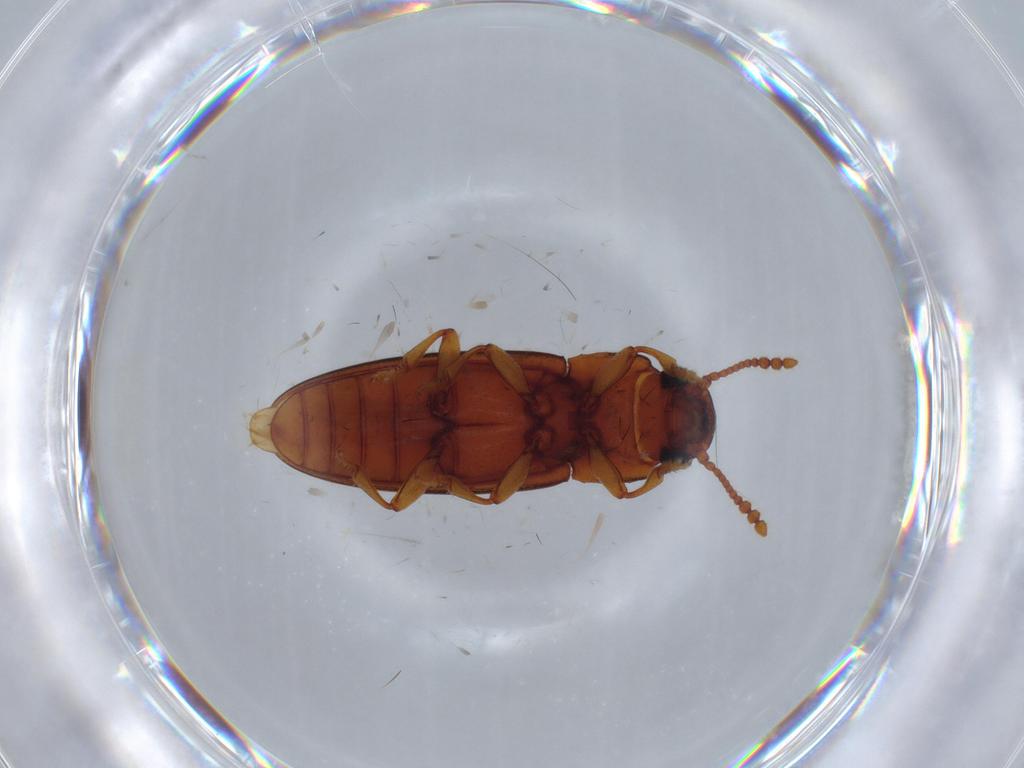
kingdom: Animalia
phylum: Arthropoda
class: Insecta
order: Coleoptera
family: Erotylidae
